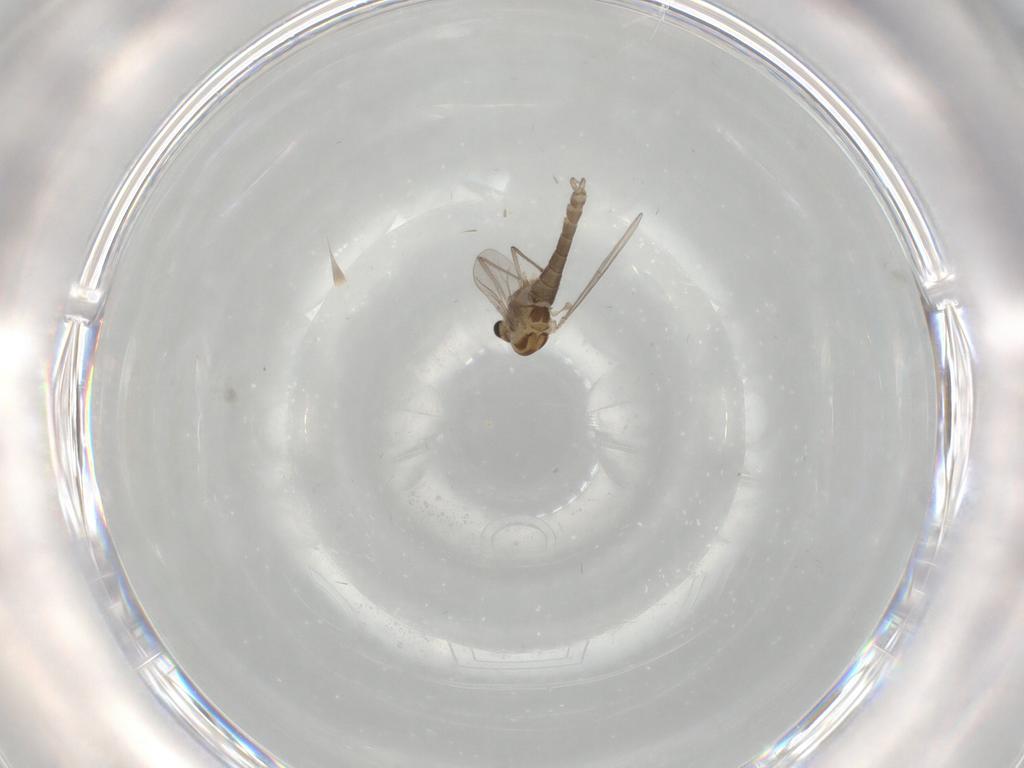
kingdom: Animalia
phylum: Arthropoda
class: Insecta
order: Diptera
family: Chironomidae
